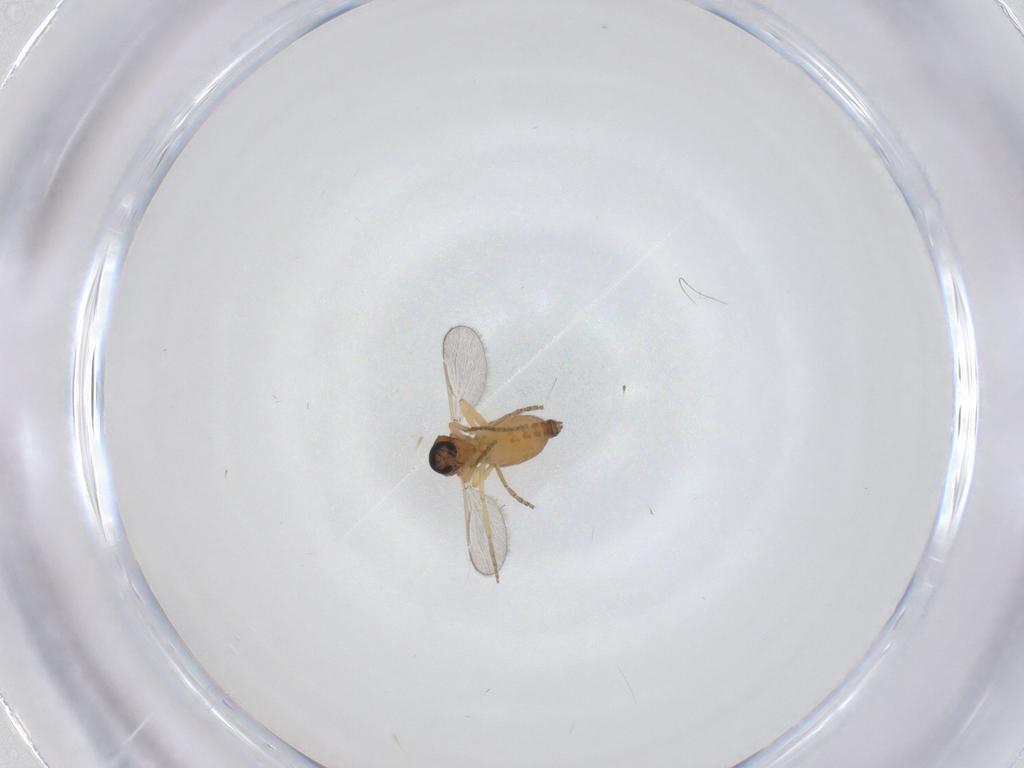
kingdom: Animalia
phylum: Arthropoda
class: Insecta
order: Diptera
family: Ceratopogonidae
